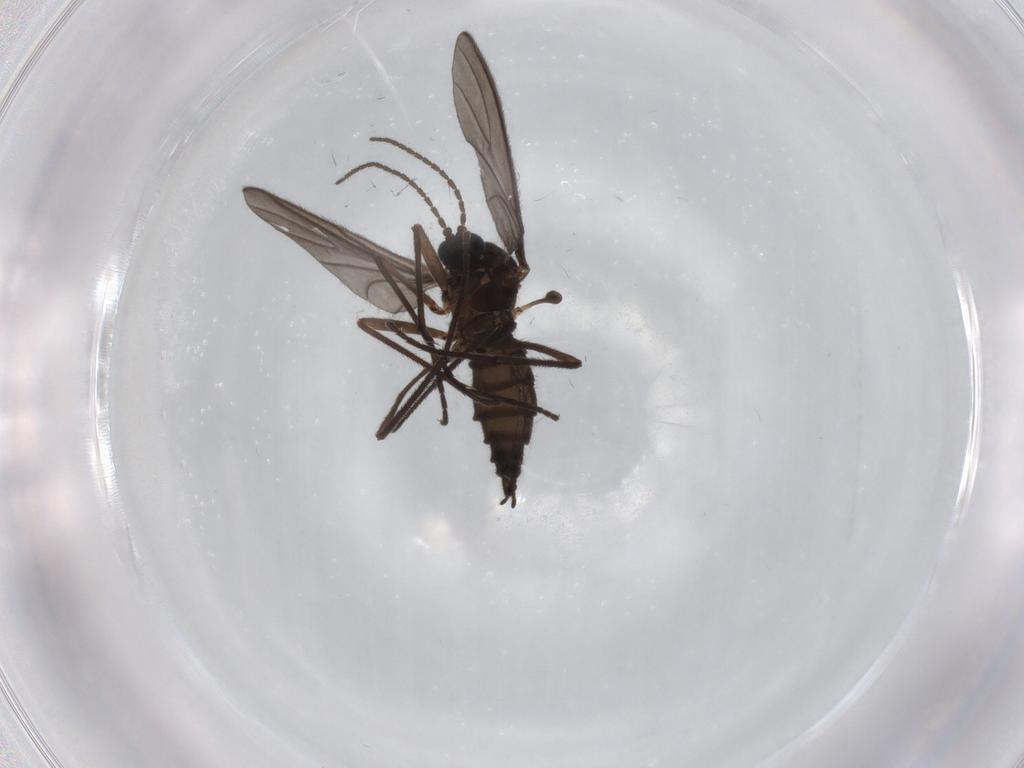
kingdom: Animalia
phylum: Arthropoda
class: Insecta
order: Diptera
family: Sciaridae
